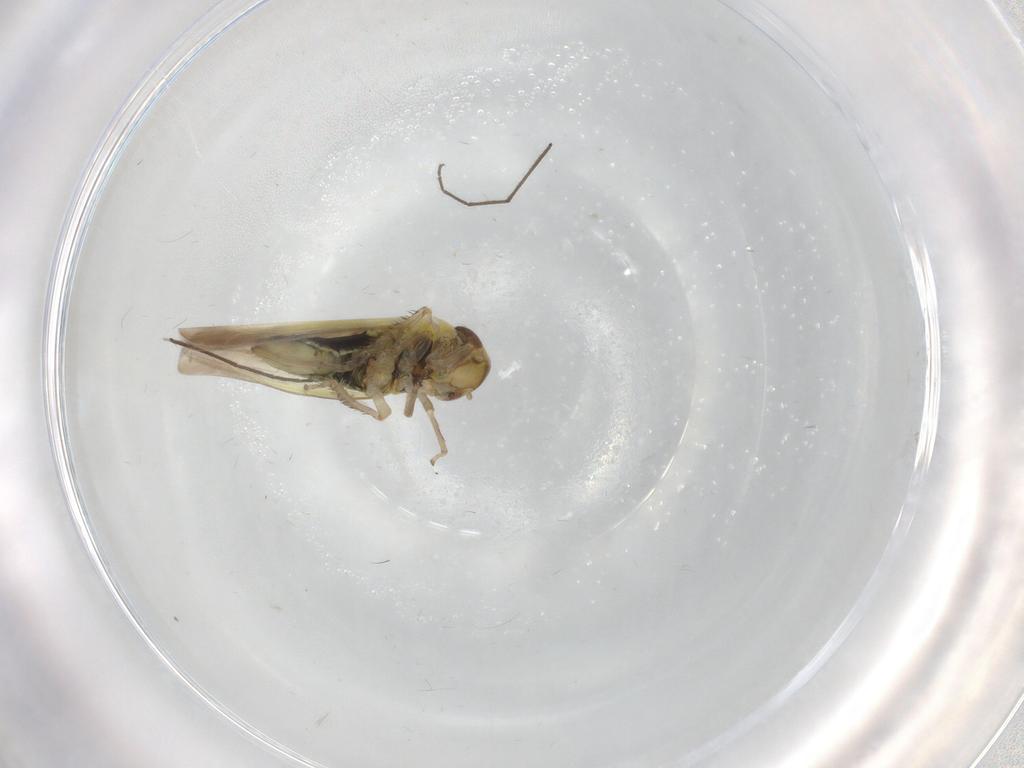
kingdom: Animalia
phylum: Arthropoda
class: Insecta
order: Hemiptera
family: Cicadellidae
